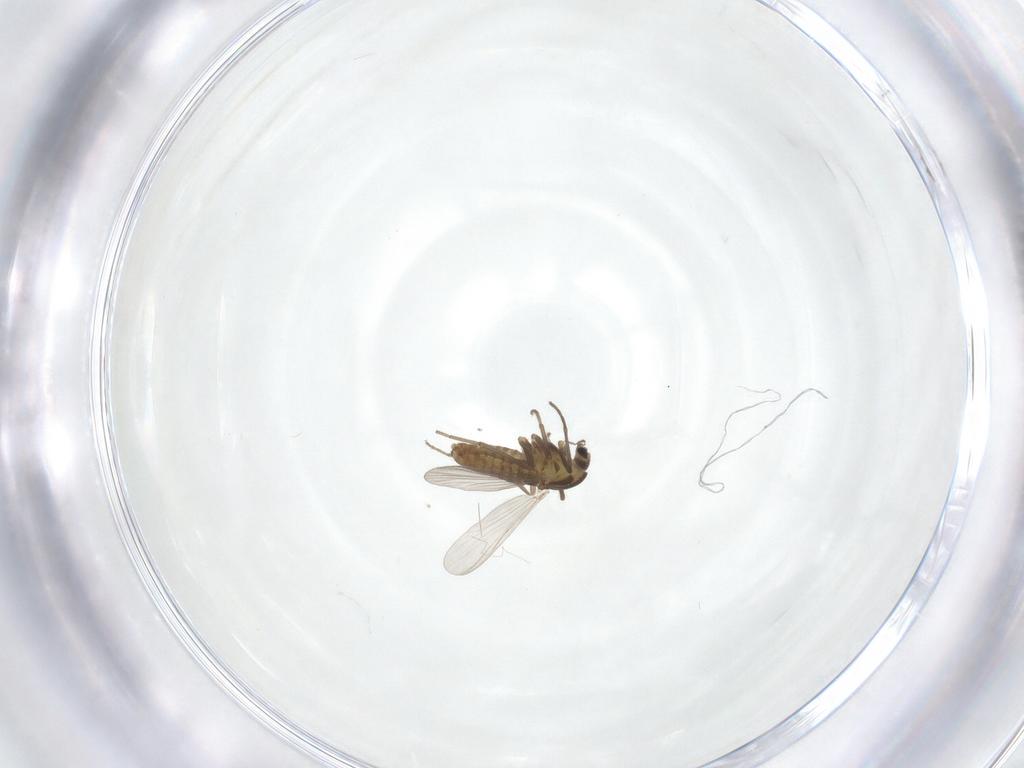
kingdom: Animalia
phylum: Arthropoda
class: Insecta
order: Diptera
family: Chironomidae
